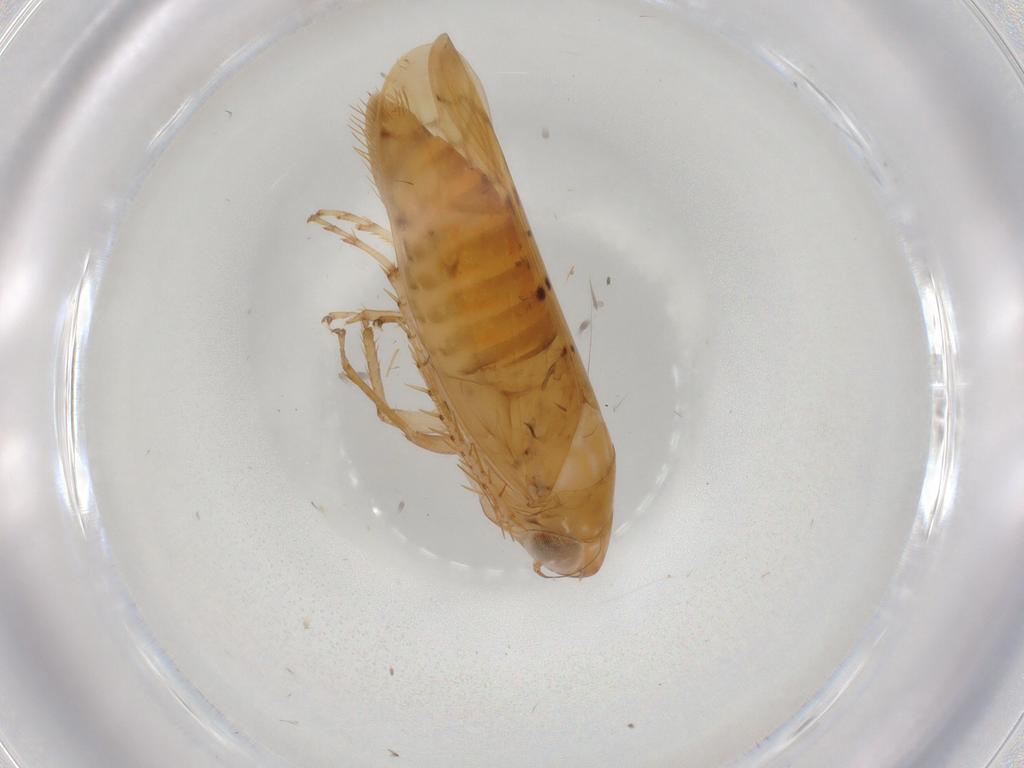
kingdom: Animalia
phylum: Arthropoda
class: Insecta
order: Hemiptera
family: Cicadellidae
